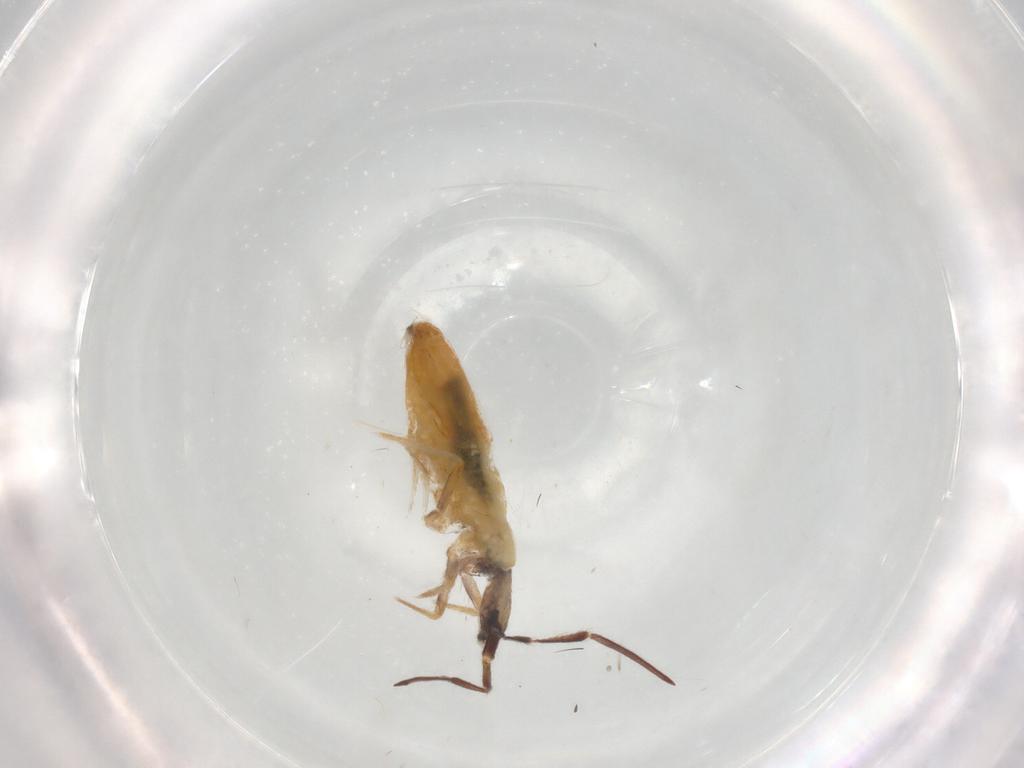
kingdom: Animalia
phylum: Arthropoda
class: Collembola
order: Entomobryomorpha
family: Entomobryidae
